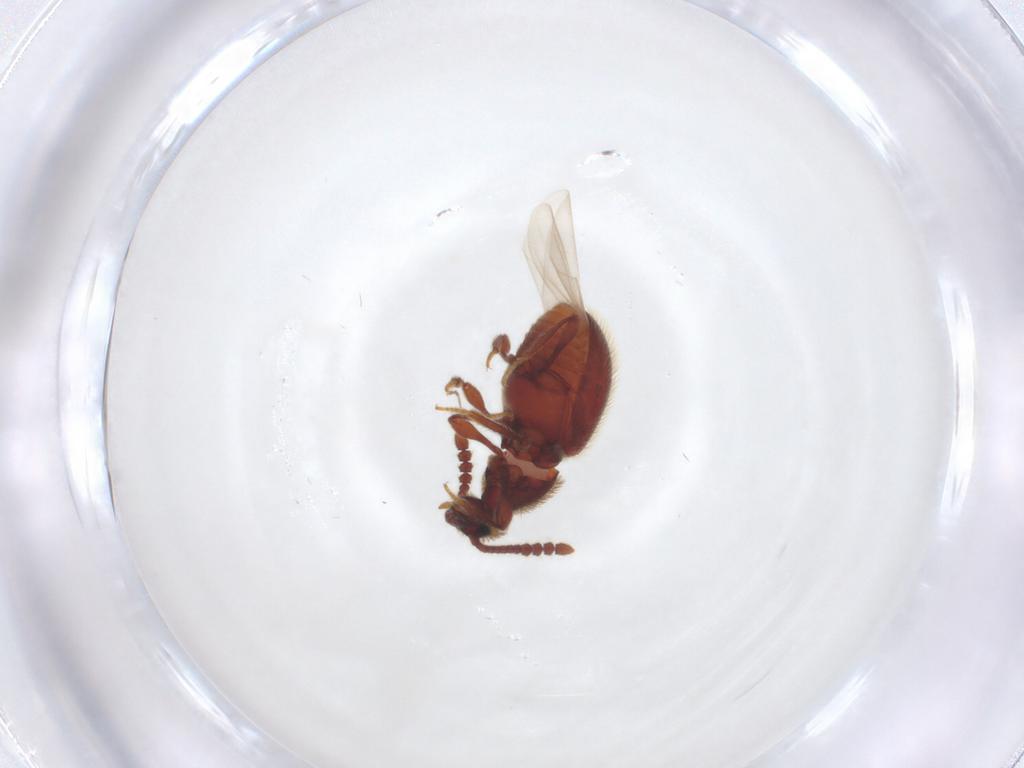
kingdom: Animalia
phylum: Arthropoda
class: Insecta
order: Coleoptera
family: Staphylinidae
